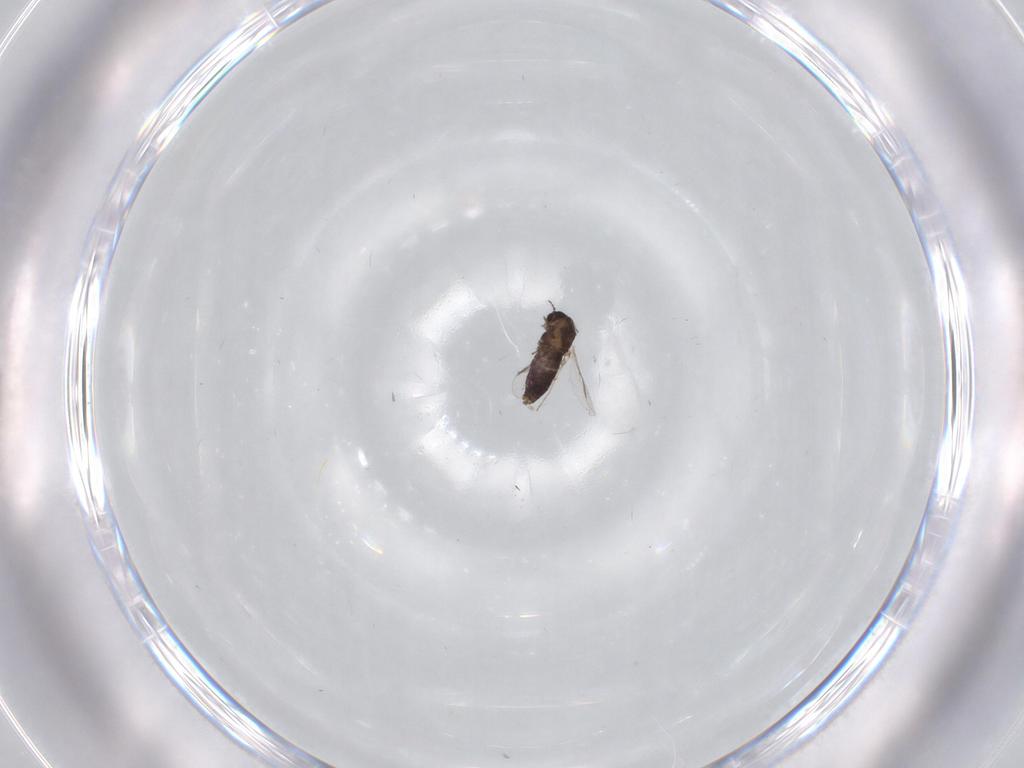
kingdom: Animalia
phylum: Arthropoda
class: Insecta
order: Diptera
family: Chironomidae
